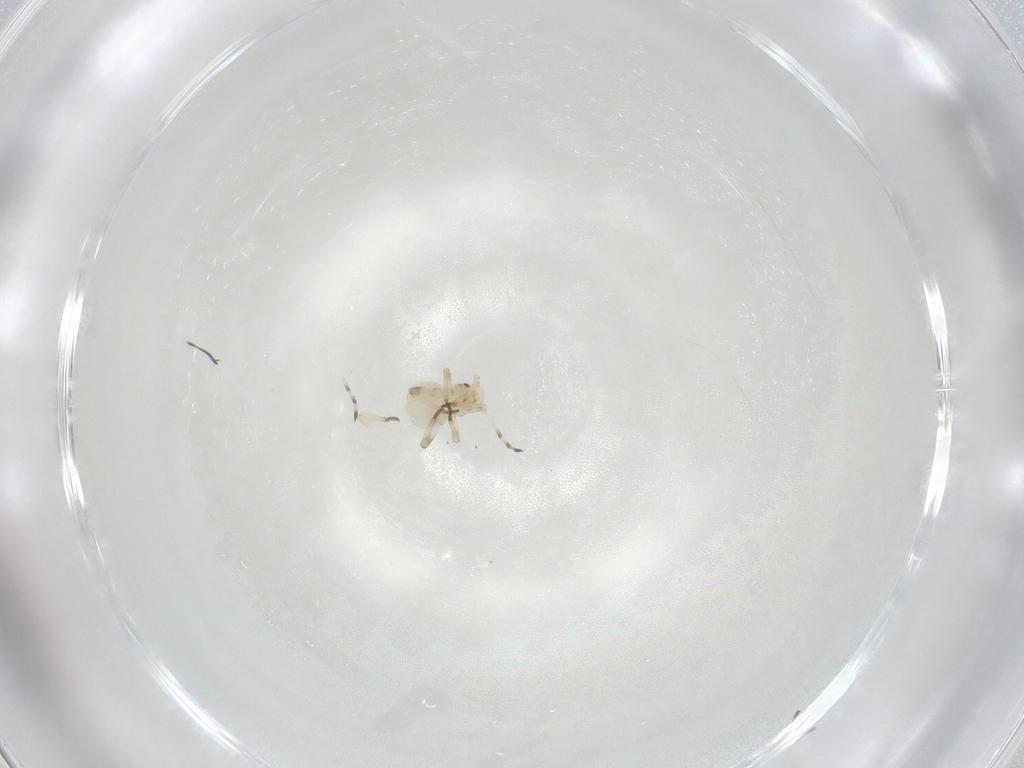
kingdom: Animalia
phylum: Arthropoda
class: Insecta
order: Hemiptera
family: Aphididae
